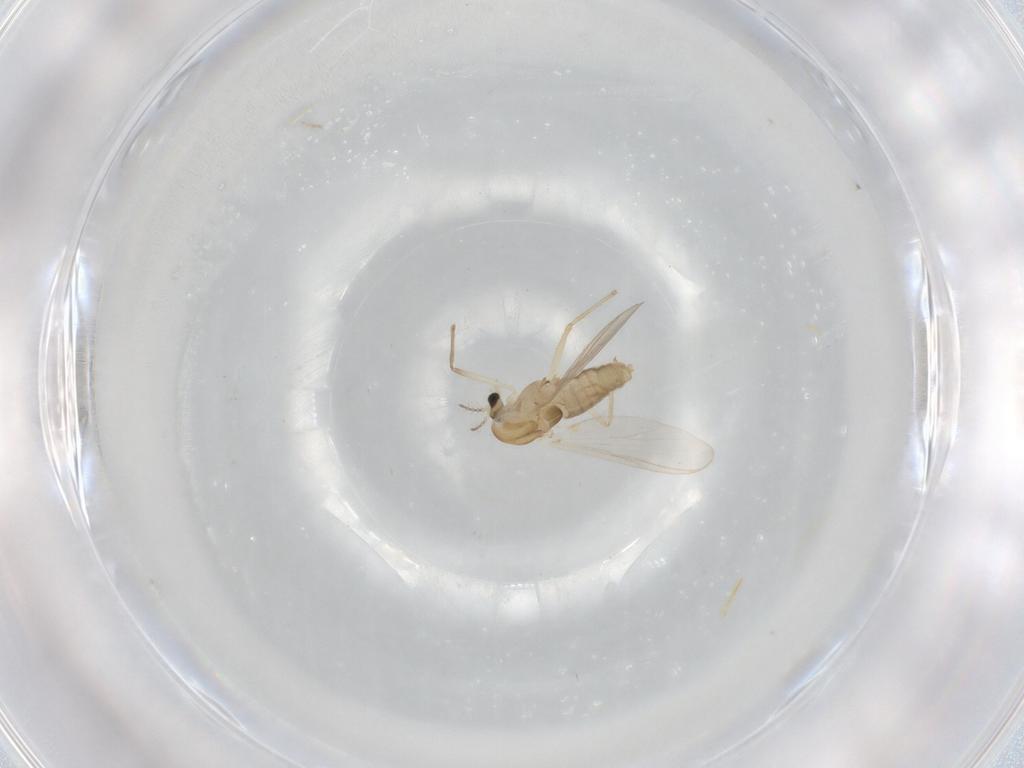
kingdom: Animalia
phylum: Arthropoda
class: Insecta
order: Diptera
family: Chironomidae
